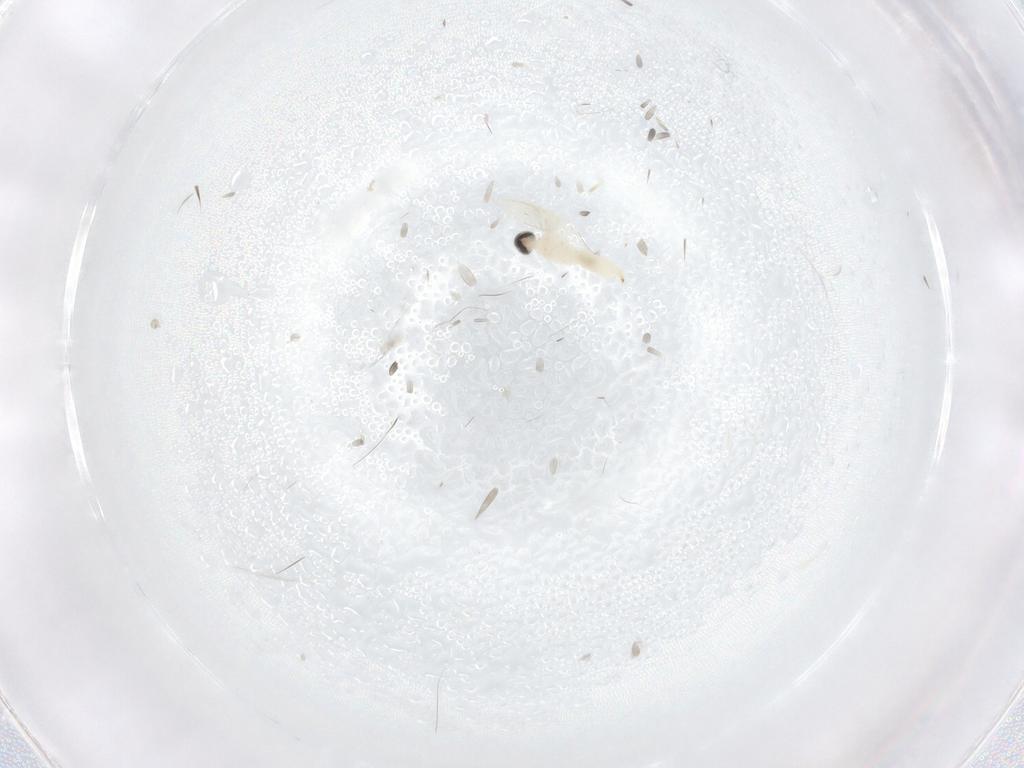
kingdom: Animalia
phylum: Arthropoda
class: Insecta
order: Diptera
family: Cecidomyiidae
